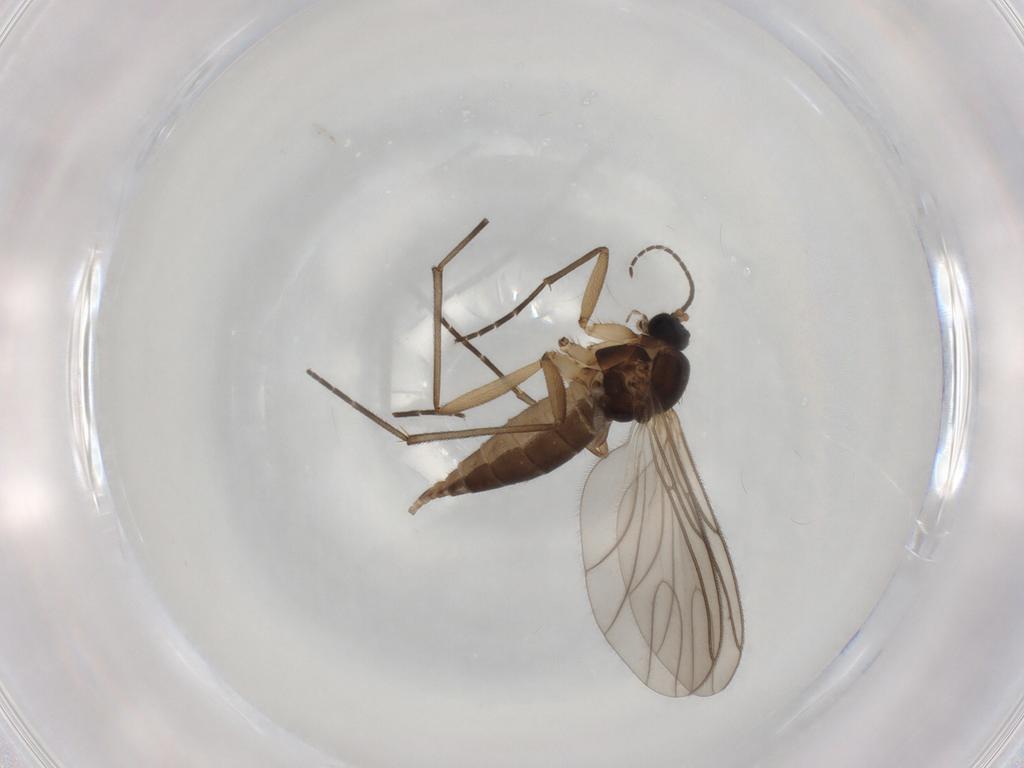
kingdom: Animalia
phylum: Arthropoda
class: Insecta
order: Diptera
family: Sciaridae
